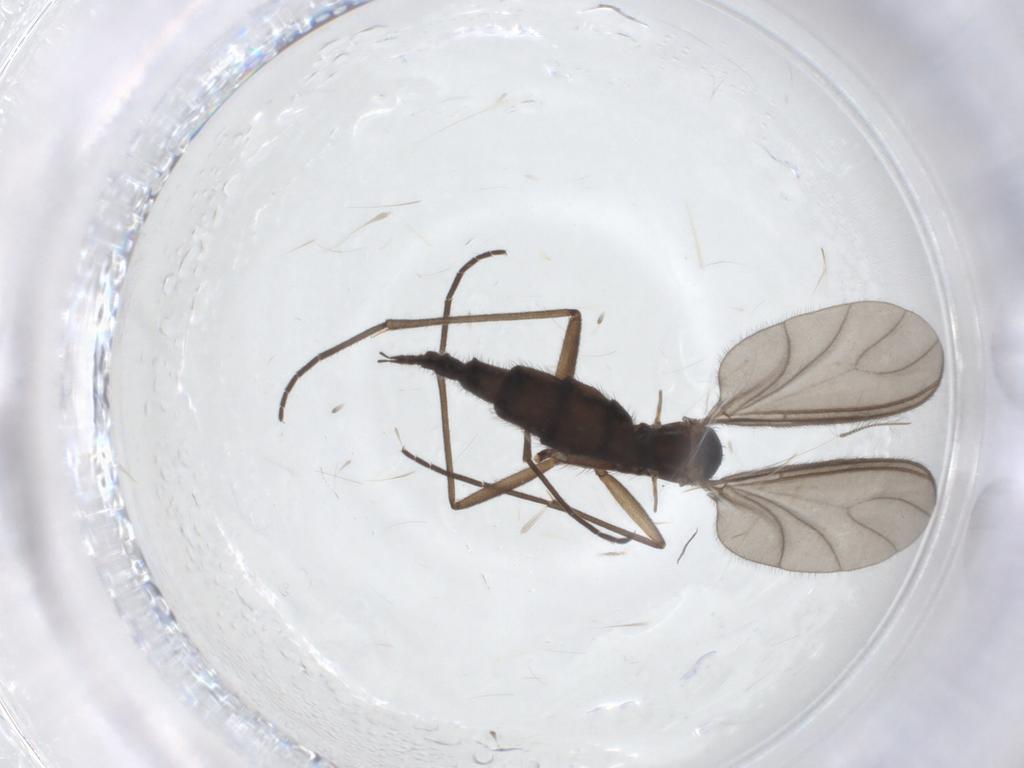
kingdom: Animalia
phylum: Arthropoda
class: Insecta
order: Diptera
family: Sciaridae
